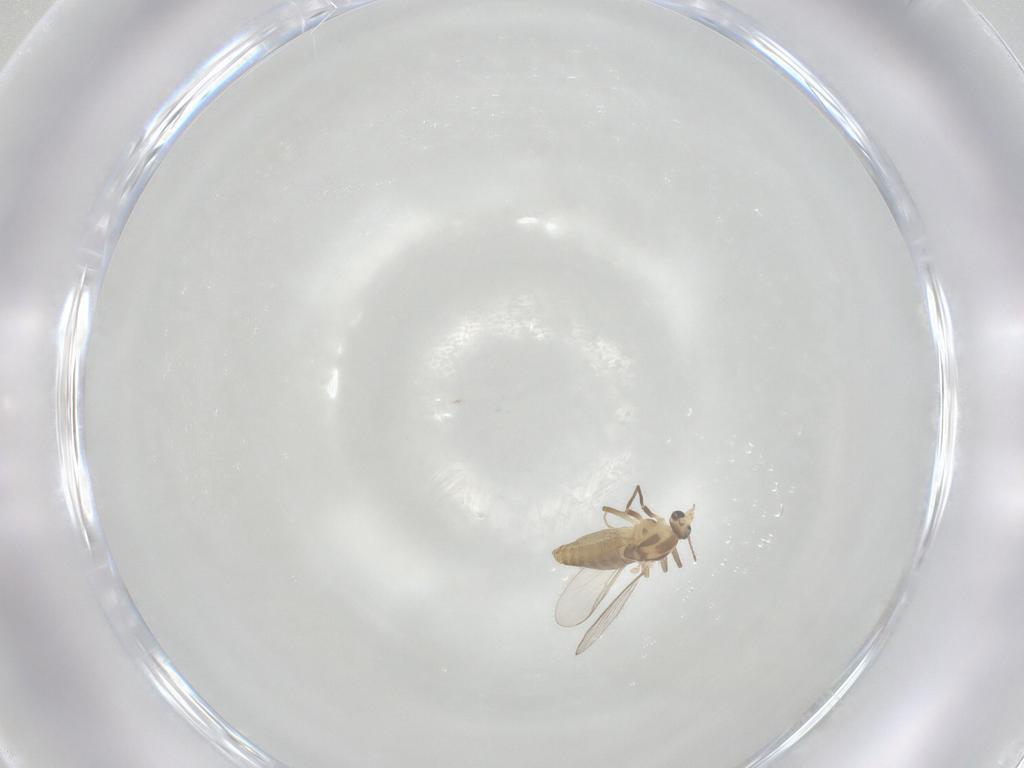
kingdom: Animalia
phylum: Arthropoda
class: Insecta
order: Diptera
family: Chironomidae
